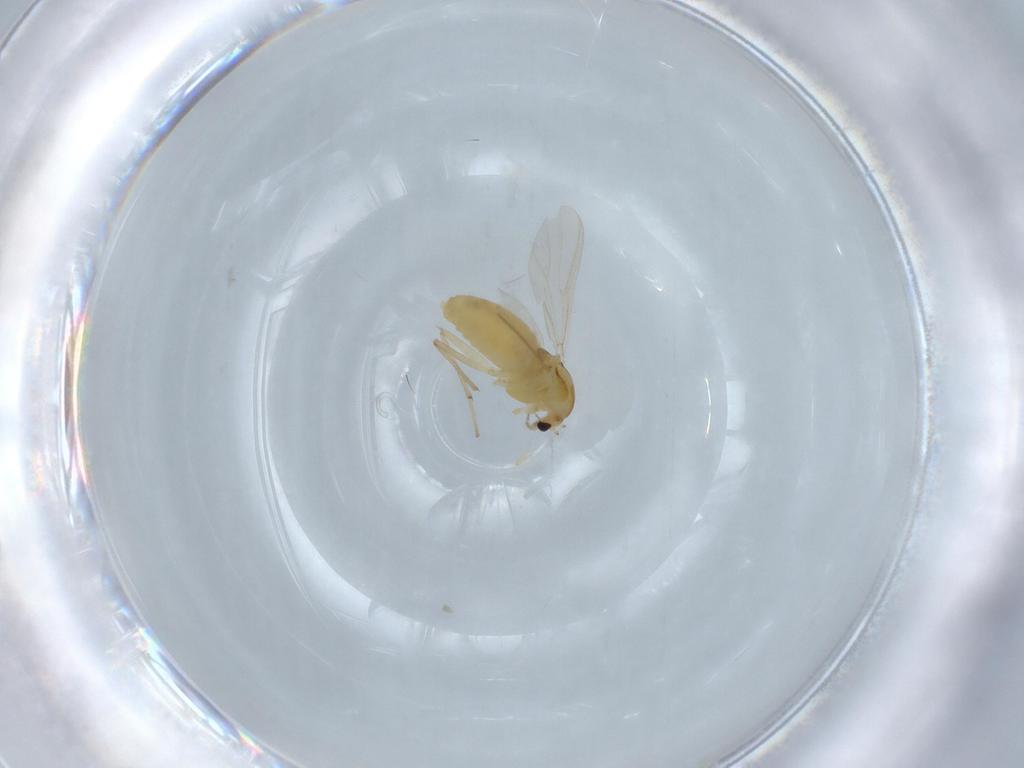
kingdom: Animalia
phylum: Arthropoda
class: Insecta
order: Diptera
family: Chironomidae
